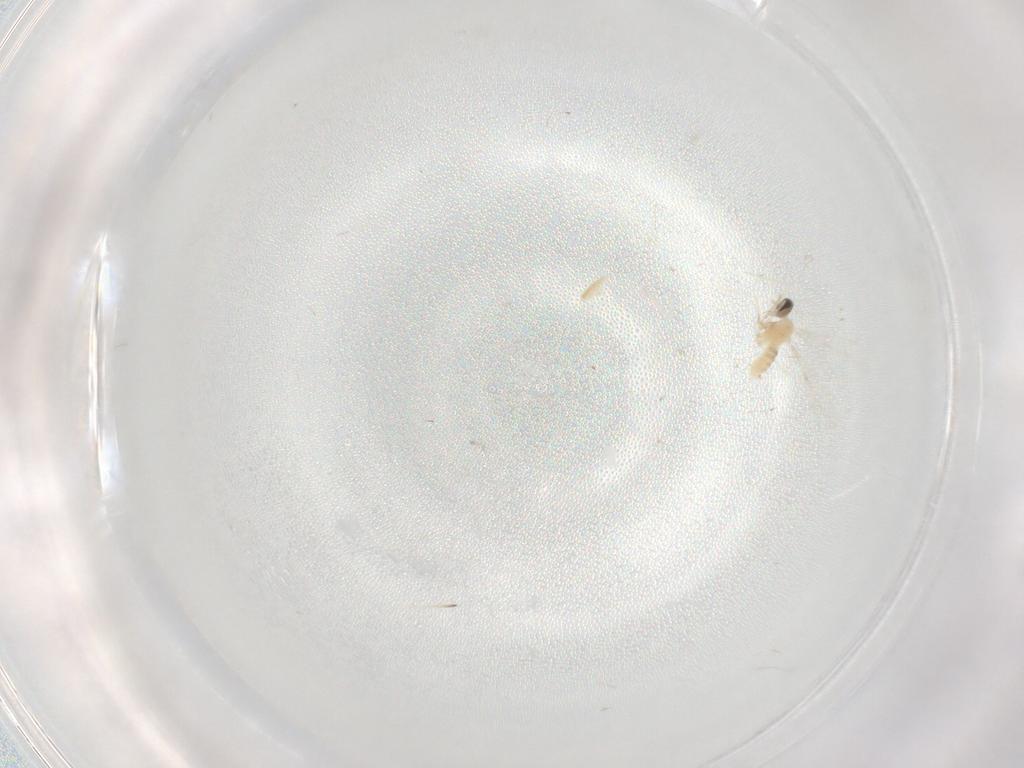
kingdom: Animalia
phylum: Arthropoda
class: Insecta
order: Diptera
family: Cecidomyiidae
